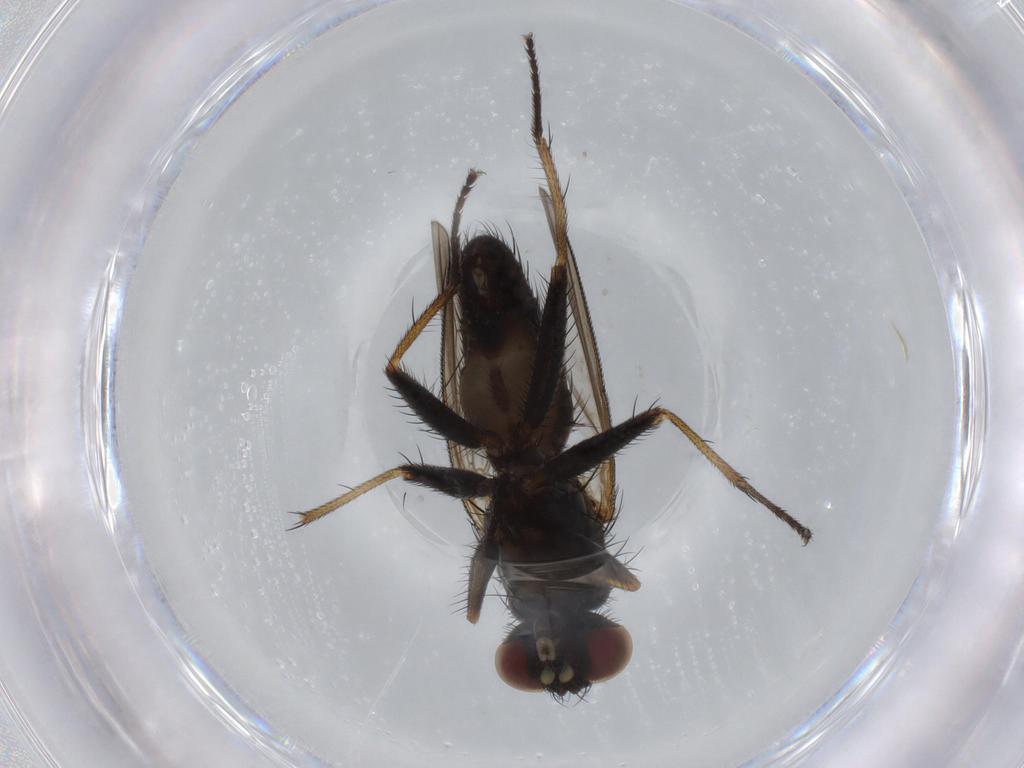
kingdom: Animalia
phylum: Arthropoda
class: Insecta
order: Diptera
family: Muscidae
